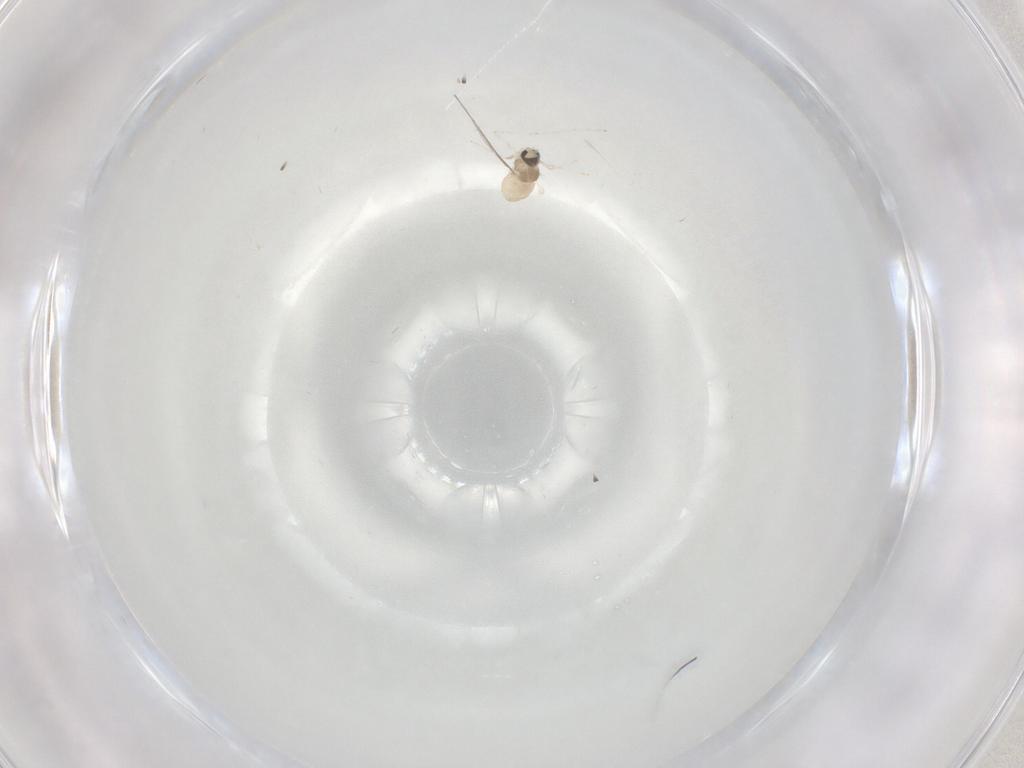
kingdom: Animalia
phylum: Arthropoda
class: Insecta
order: Diptera
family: Cecidomyiidae
